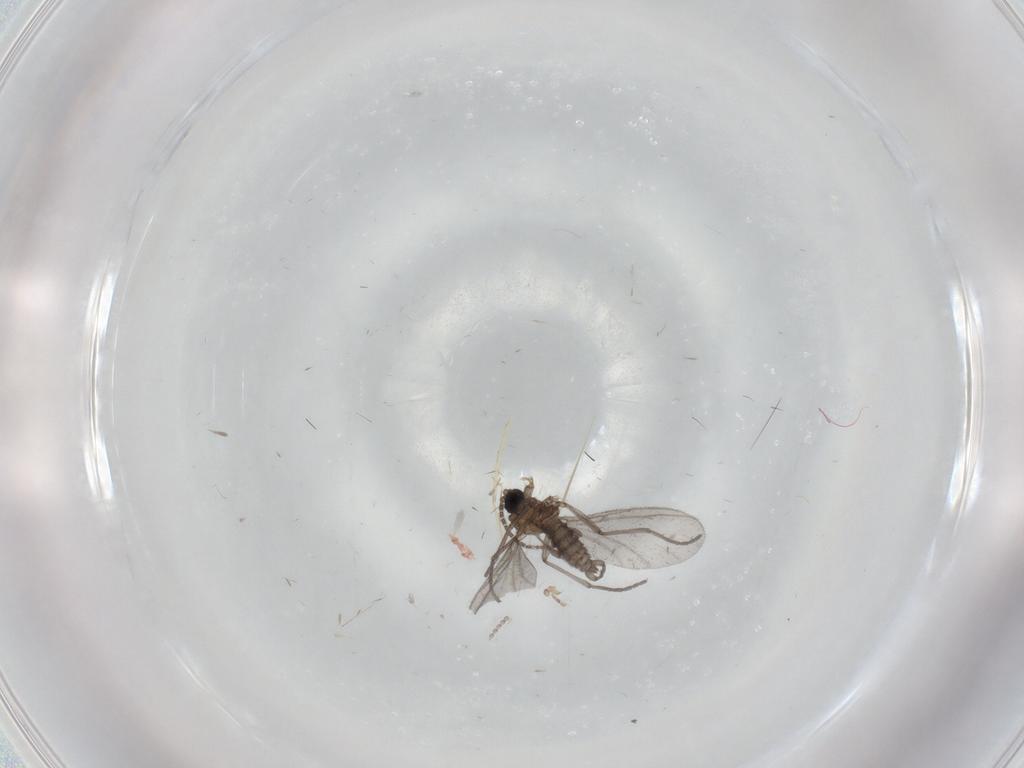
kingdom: Animalia
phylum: Arthropoda
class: Insecta
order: Diptera
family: Sciaridae
